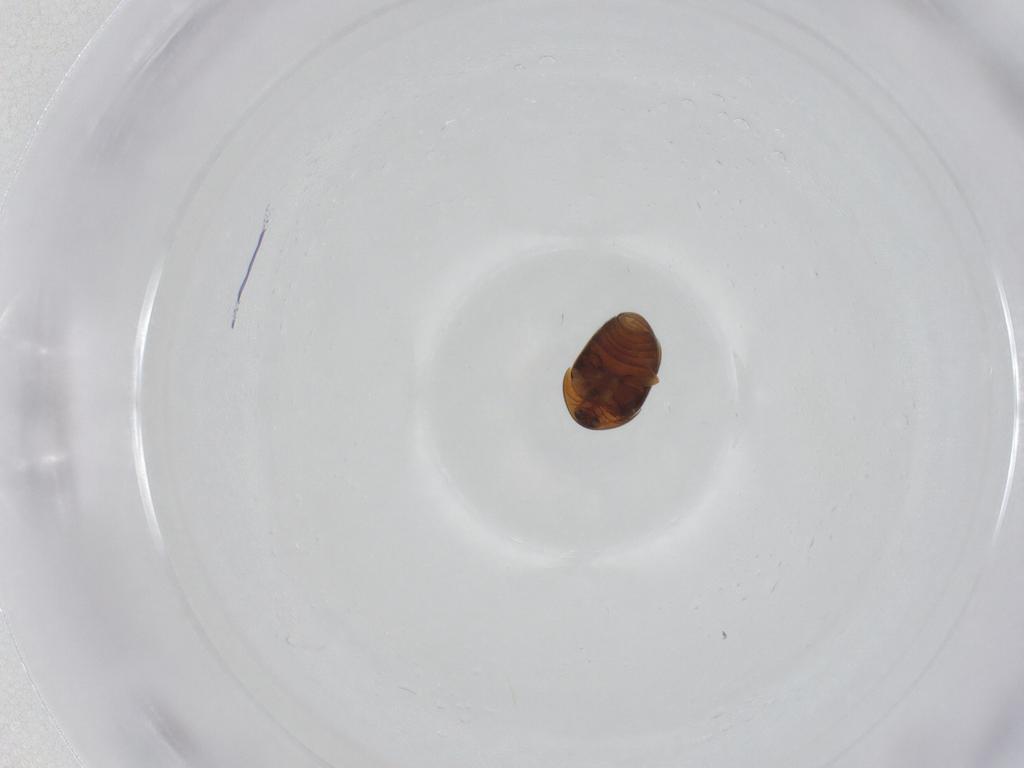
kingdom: Animalia
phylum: Arthropoda
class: Insecta
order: Coleoptera
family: Corylophidae
